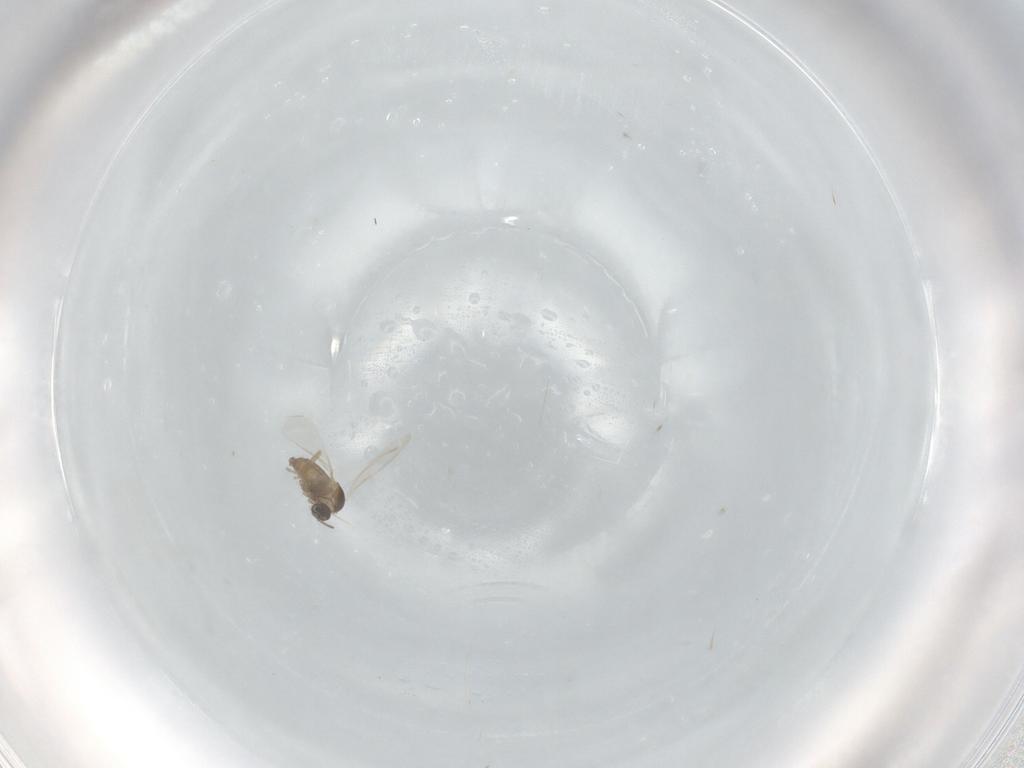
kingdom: Animalia
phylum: Arthropoda
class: Insecta
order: Diptera
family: Cecidomyiidae
